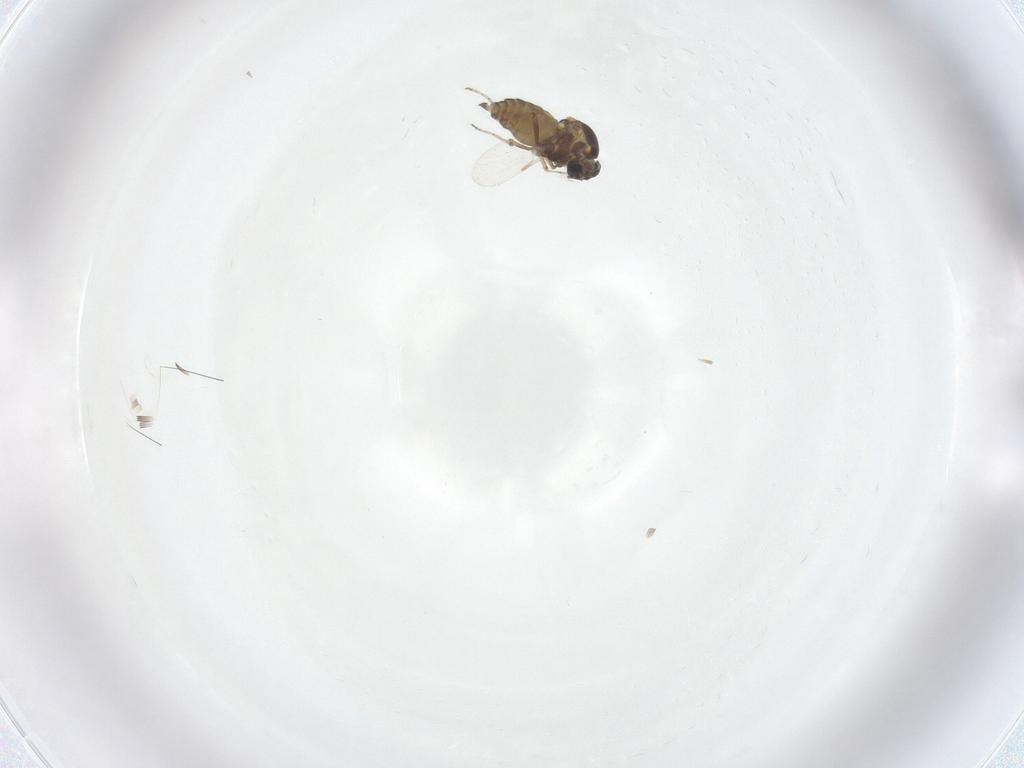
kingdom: Animalia
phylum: Arthropoda
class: Insecta
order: Diptera
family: Ceratopogonidae
